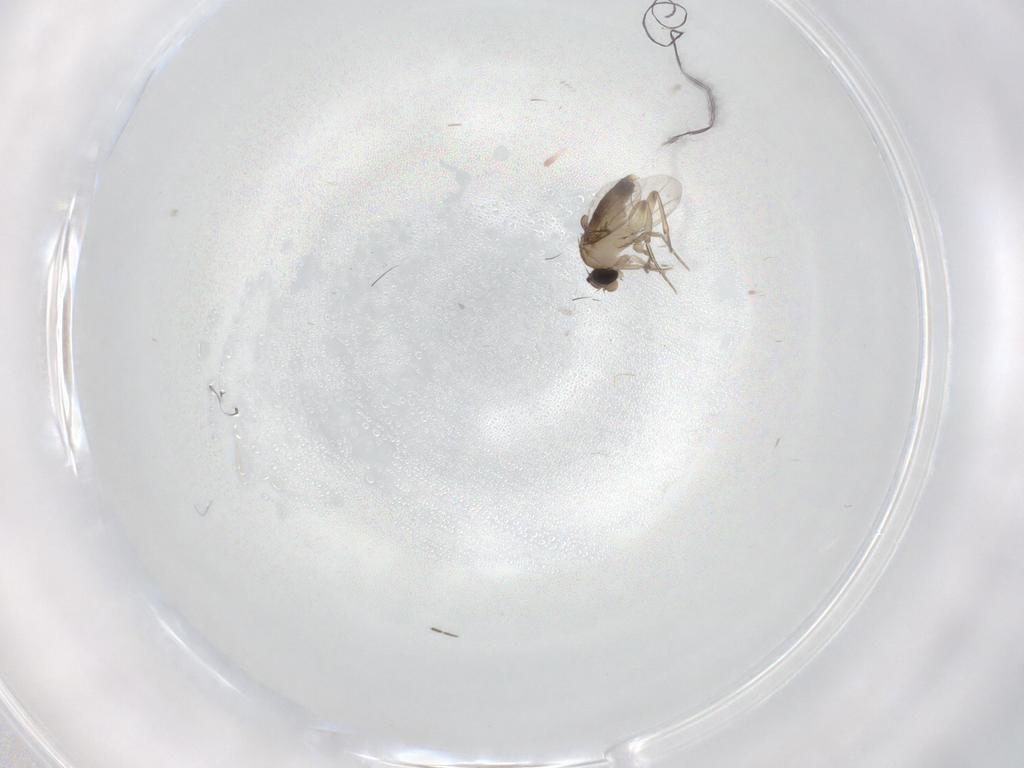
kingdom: Animalia
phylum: Arthropoda
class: Insecta
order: Diptera
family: Phoridae
